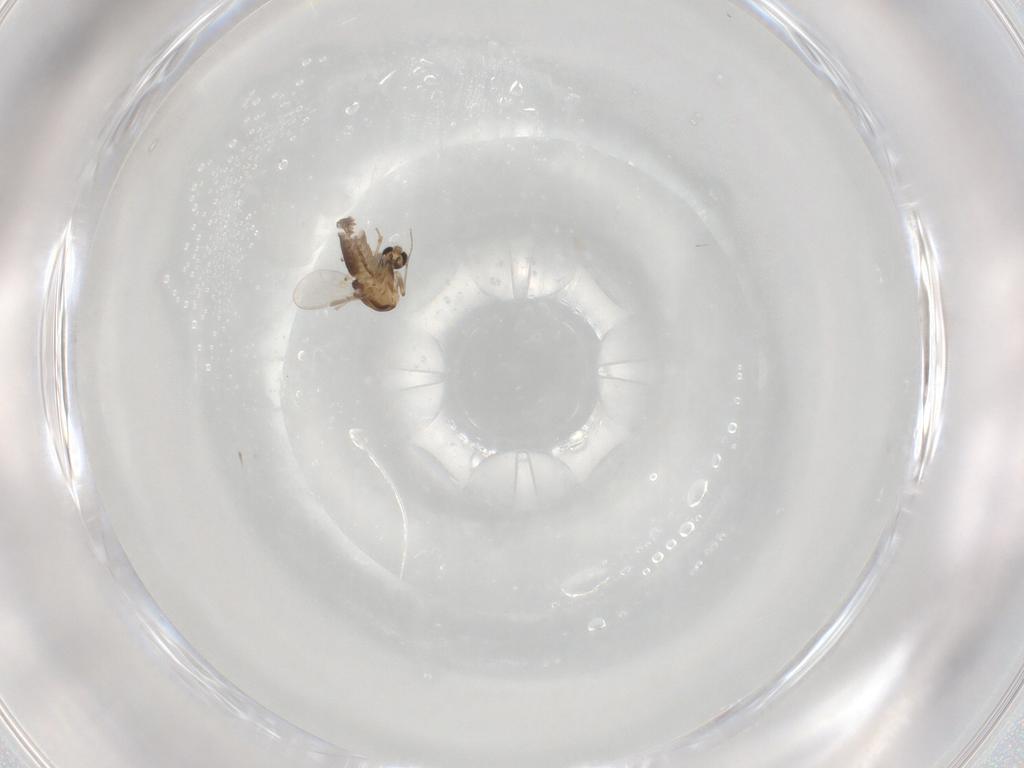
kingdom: Animalia
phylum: Arthropoda
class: Insecta
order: Diptera
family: Chironomidae
